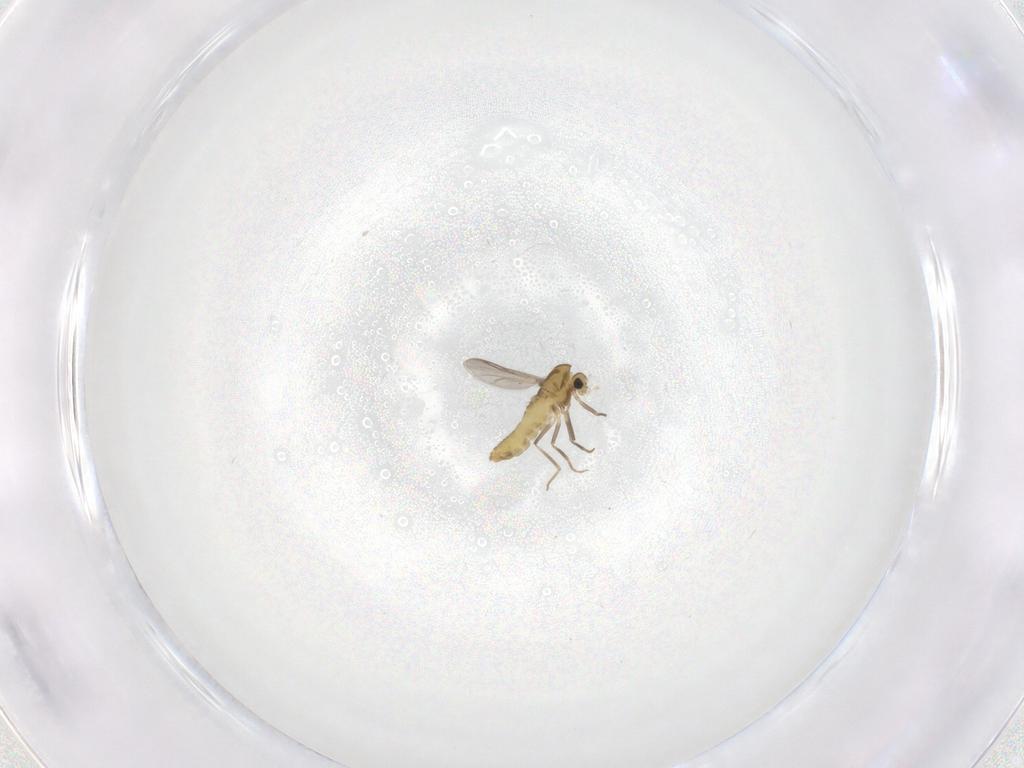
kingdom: Animalia
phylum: Arthropoda
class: Insecta
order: Diptera
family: Chironomidae
